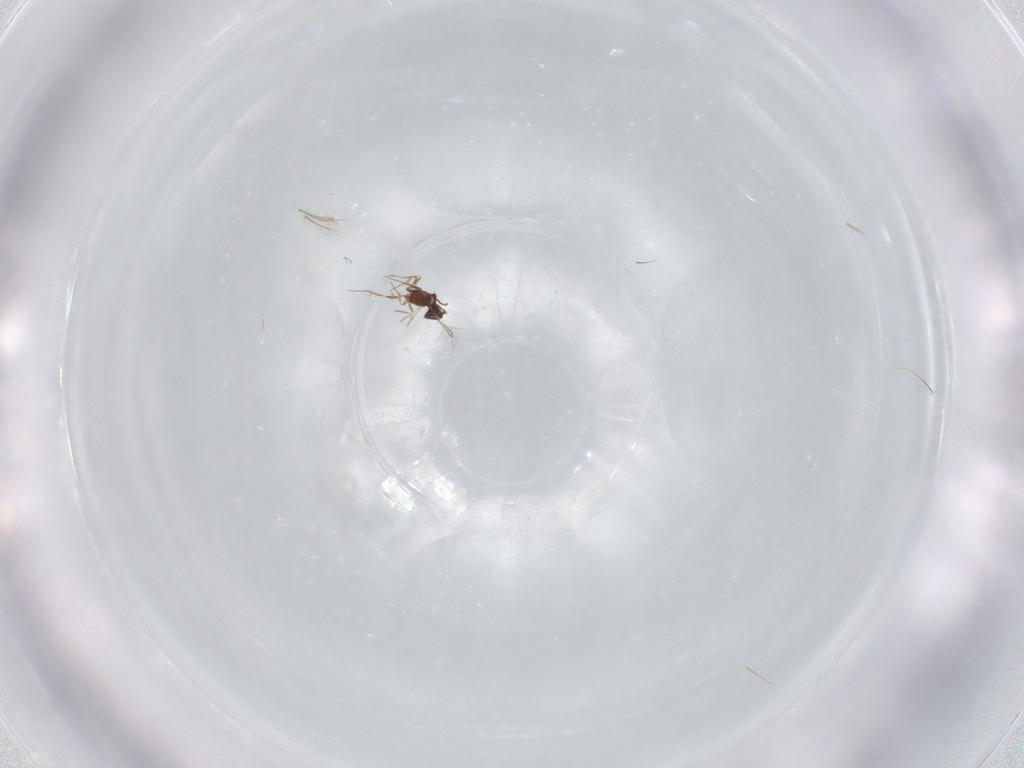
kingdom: Animalia
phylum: Arthropoda
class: Insecta
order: Hymenoptera
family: Mymaridae
